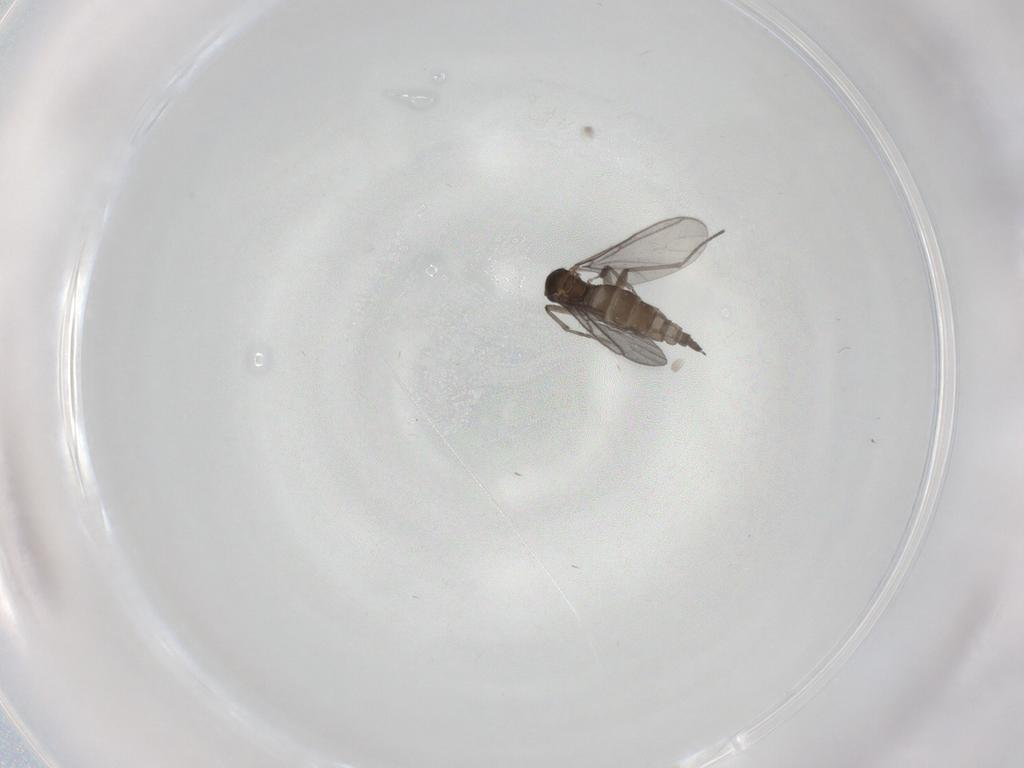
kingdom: Animalia
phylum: Arthropoda
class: Insecta
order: Diptera
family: Sciaridae
